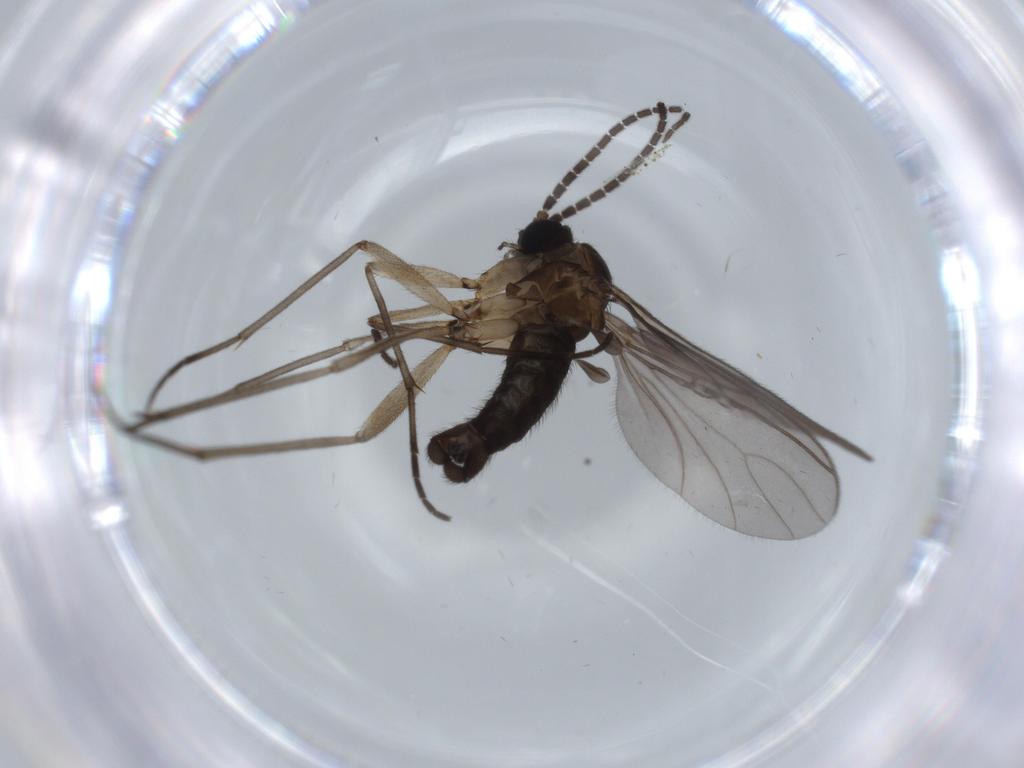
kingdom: Animalia
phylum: Arthropoda
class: Insecta
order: Diptera
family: Sciaridae
